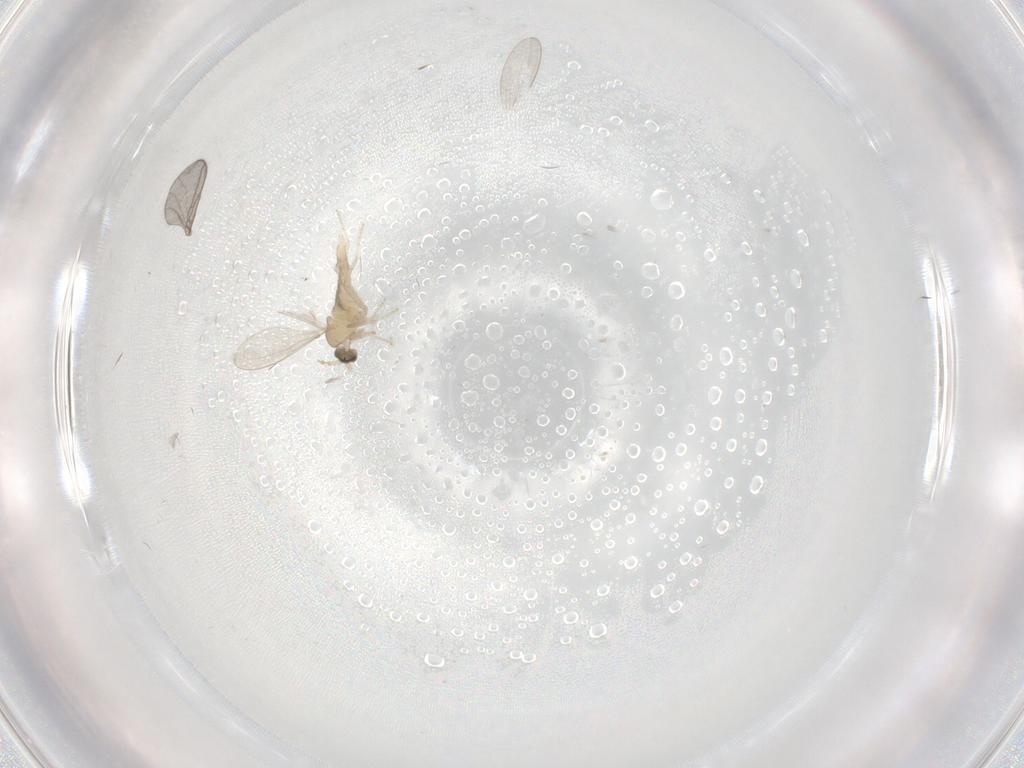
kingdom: Animalia
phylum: Arthropoda
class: Insecta
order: Diptera
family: Cecidomyiidae
